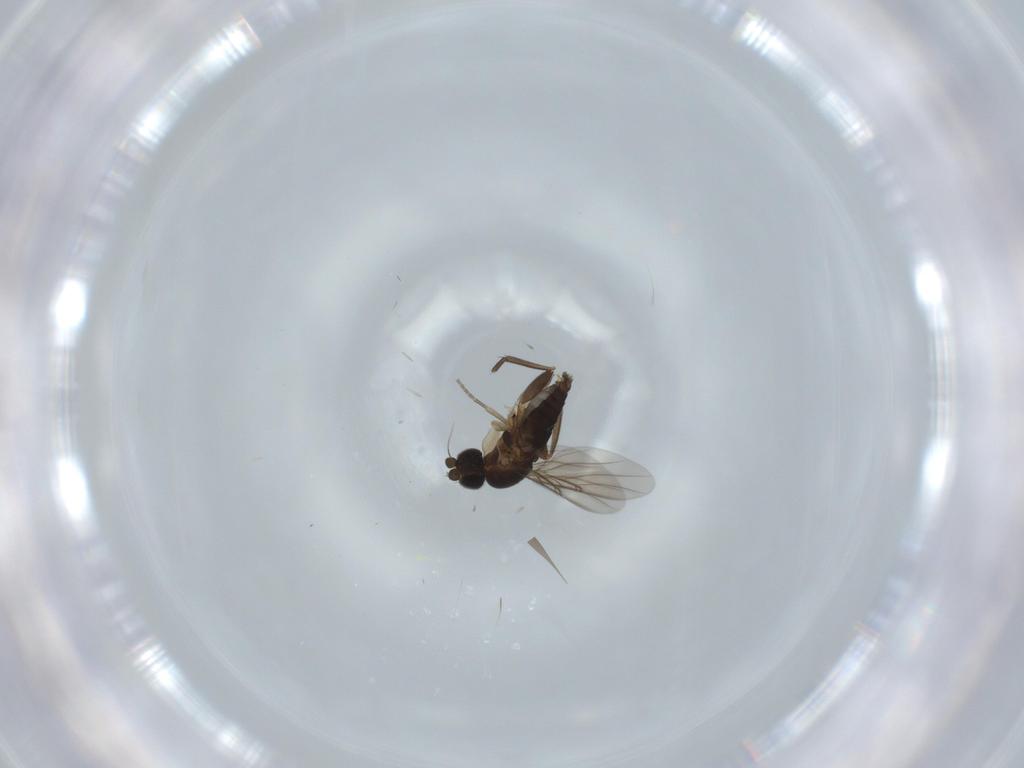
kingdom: Animalia
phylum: Arthropoda
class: Insecta
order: Diptera
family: Phoridae
